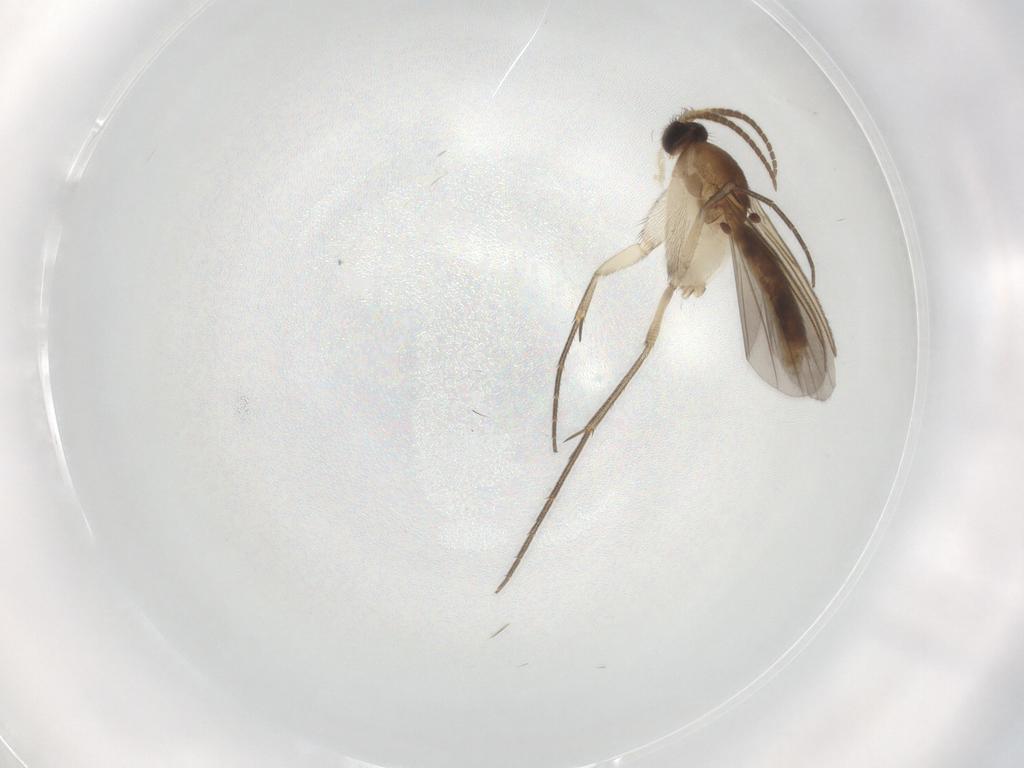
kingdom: Animalia
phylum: Arthropoda
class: Insecta
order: Diptera
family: Mycetophilidae
